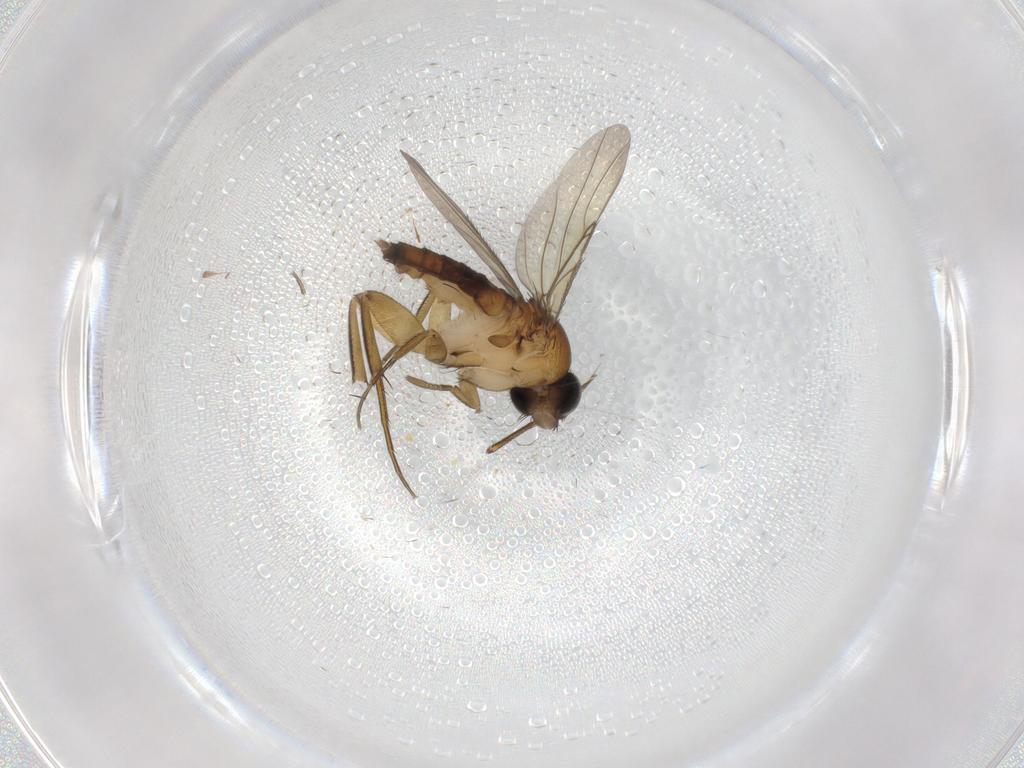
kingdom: Animalia
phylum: Arthropoda
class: Insecta
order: Diptera
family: Phoridae
